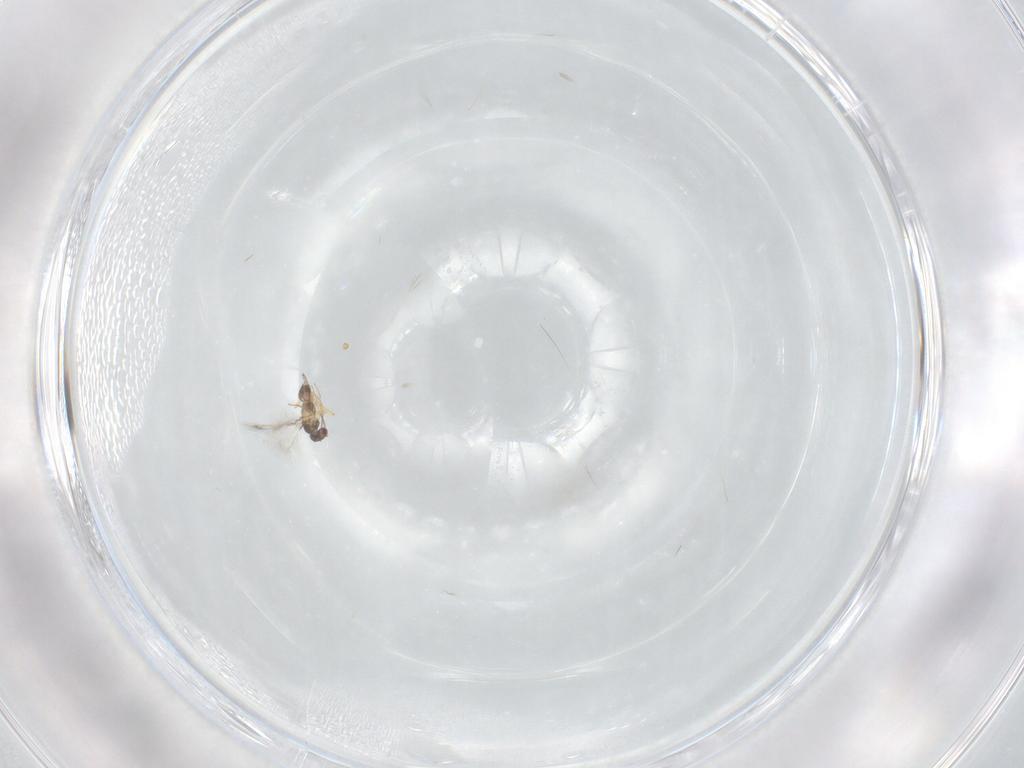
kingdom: Animalia
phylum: Arthropoda
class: Insecta
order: Hymenoptera
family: Mymaridae
